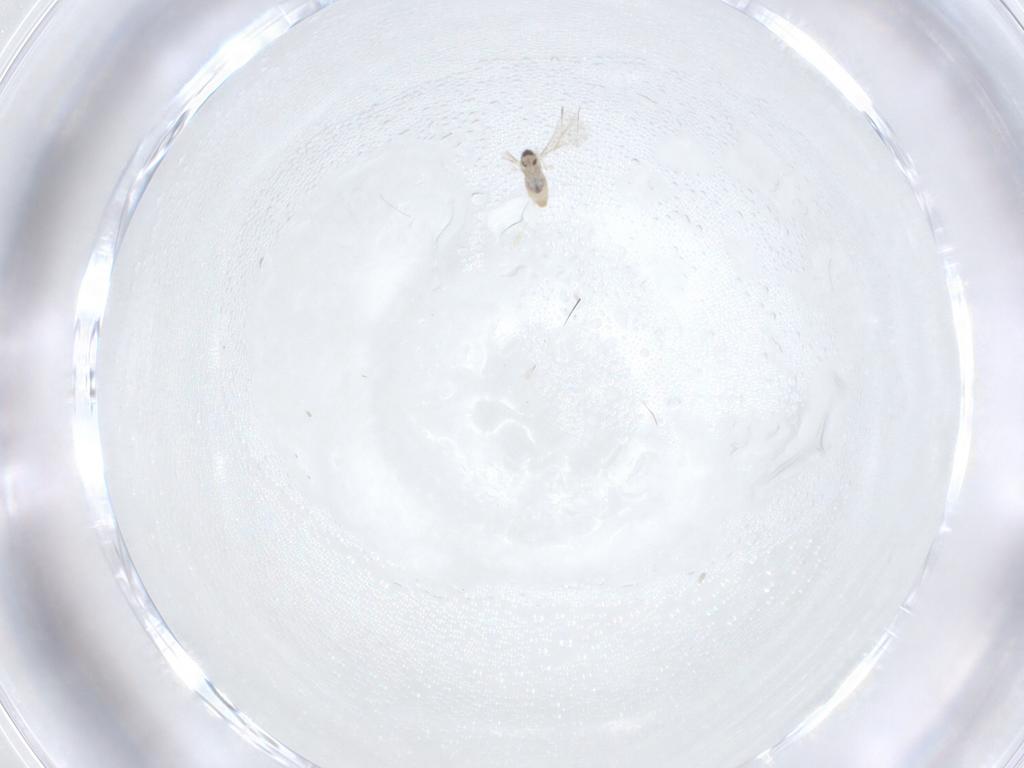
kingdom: Animalia
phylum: Arthropoda
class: Insecta
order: Diptera
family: Cecidomyiidae
